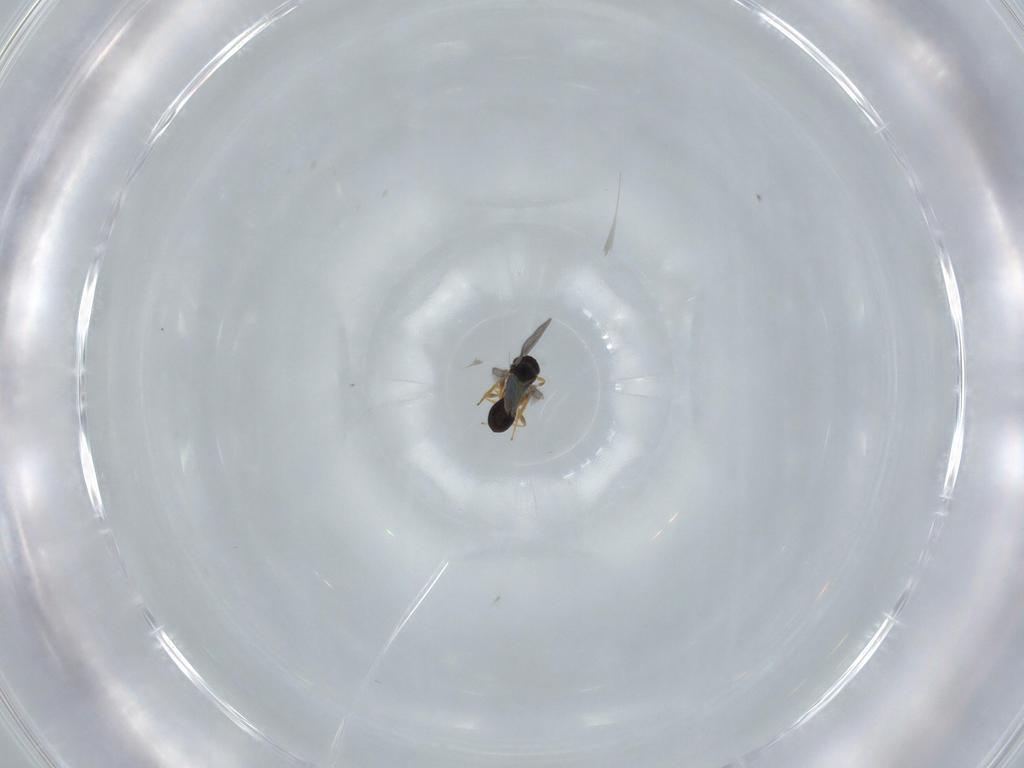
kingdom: Animalia
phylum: Arthropoda
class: Insecta
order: Hymenoptera
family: Platygastridae
